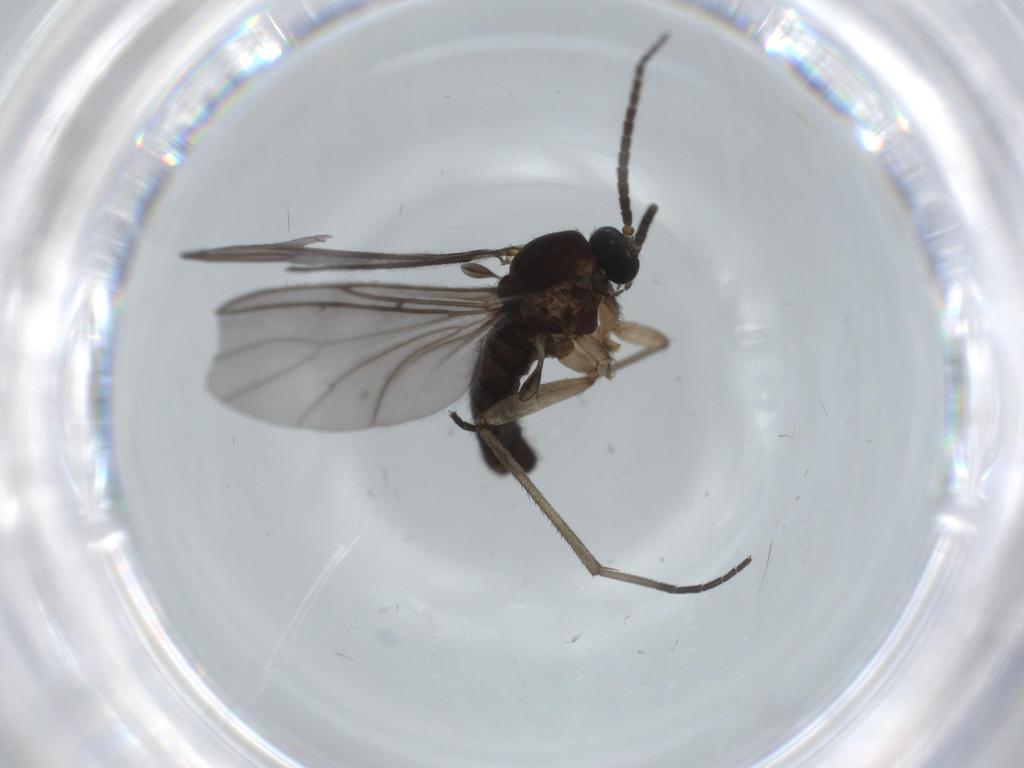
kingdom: Animalia
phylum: Arthropoda
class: Insecta
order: Diptera
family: Sciaridae
